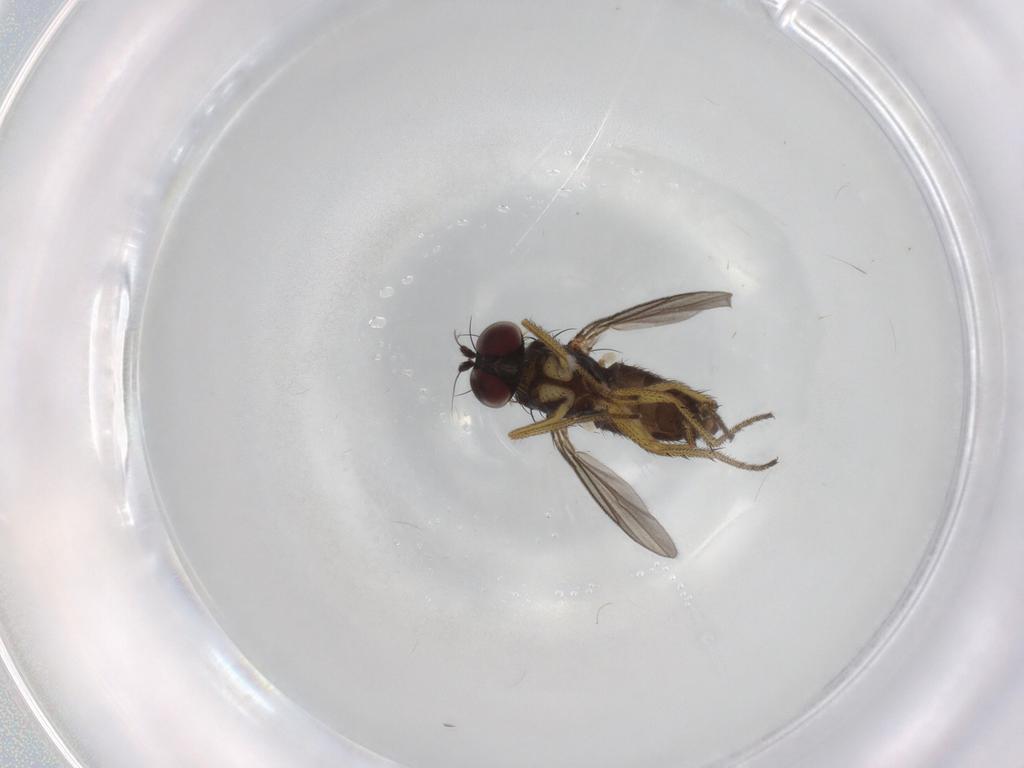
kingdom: Animalia
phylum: Arthropoda
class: Insecta
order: Diptera
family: Dolichopodidae
